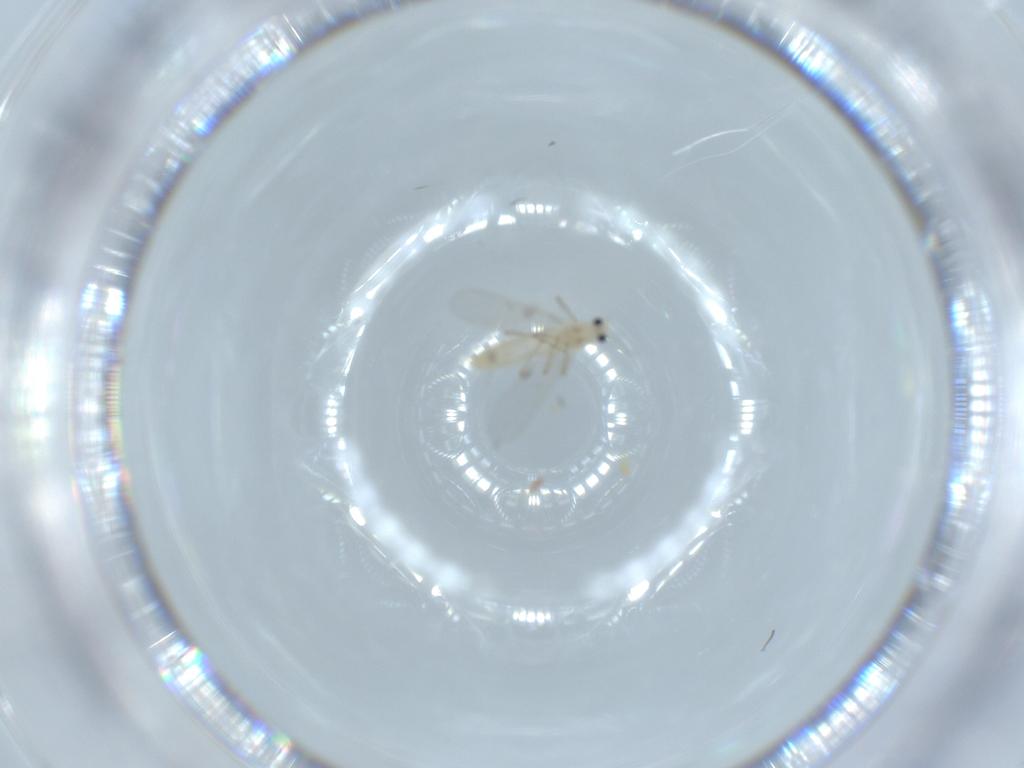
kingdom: Animalia
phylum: Arthropoda
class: Insecta
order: Diptera
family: Chironomidae
